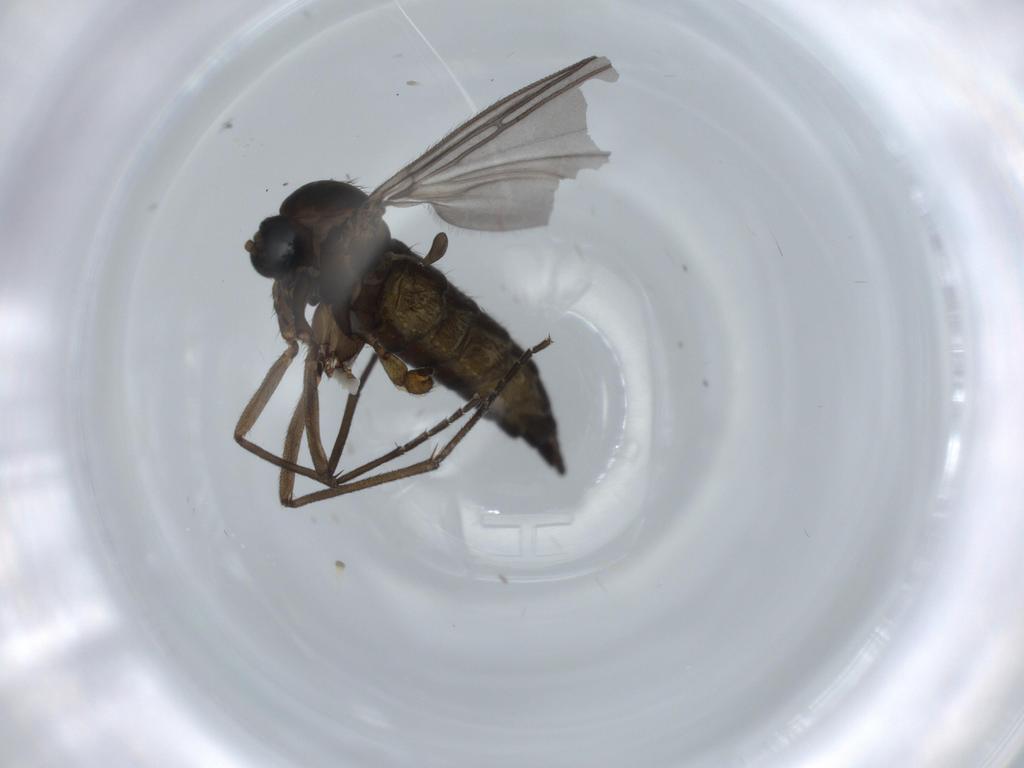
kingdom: Animalia
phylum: Arthropoda
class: Insecta
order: Diptera
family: Sciaridae
